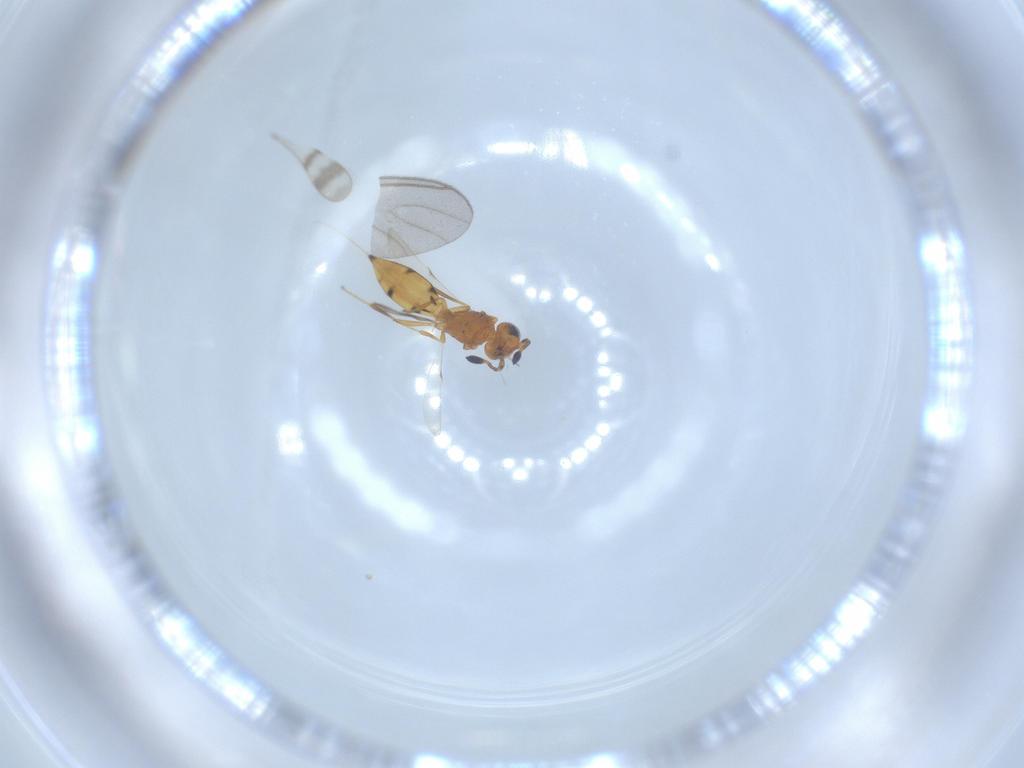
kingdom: Animalia
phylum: Arthropoda
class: Insecta
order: Hymenoptera
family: Scelionidae
